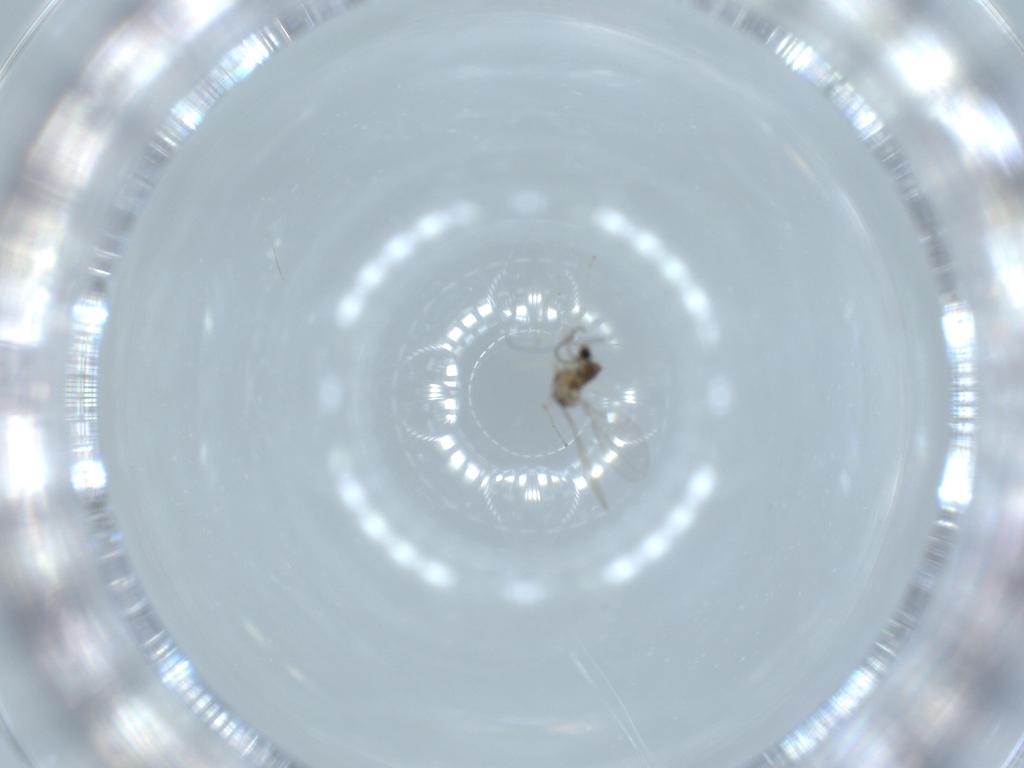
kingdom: Animalia
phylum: Arthropoda
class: Insecta
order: Diptera
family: Cecidomyiidae
